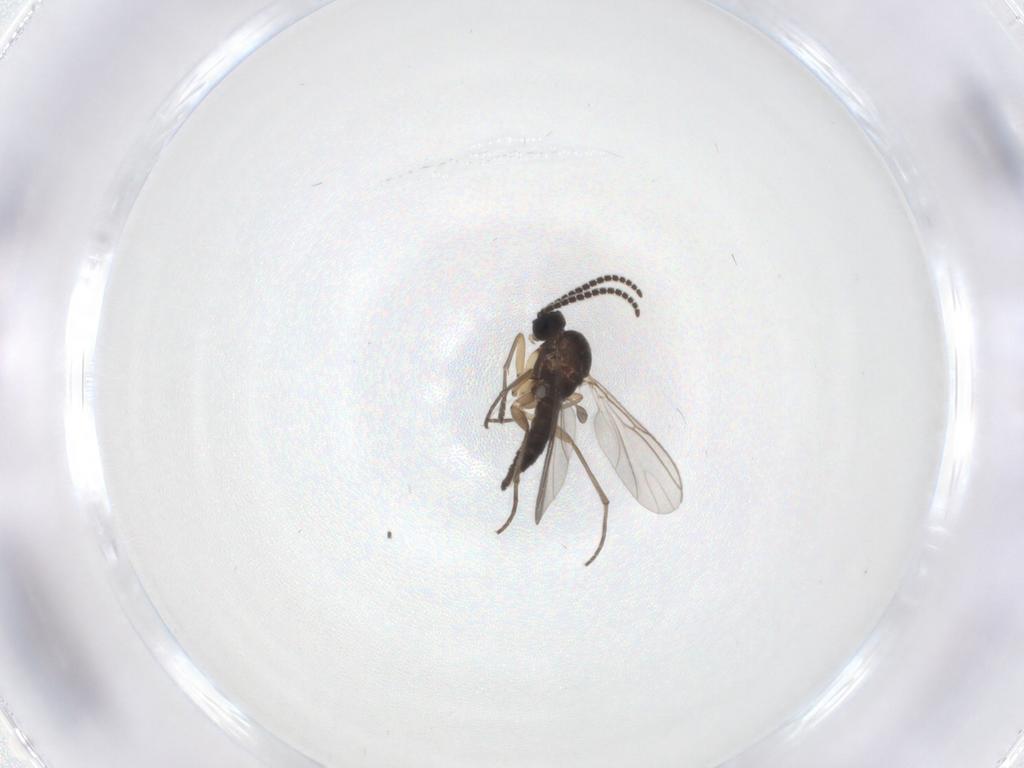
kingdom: Animalia
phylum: Arthropoda
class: Insecta
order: Diptera
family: Sciaridae
